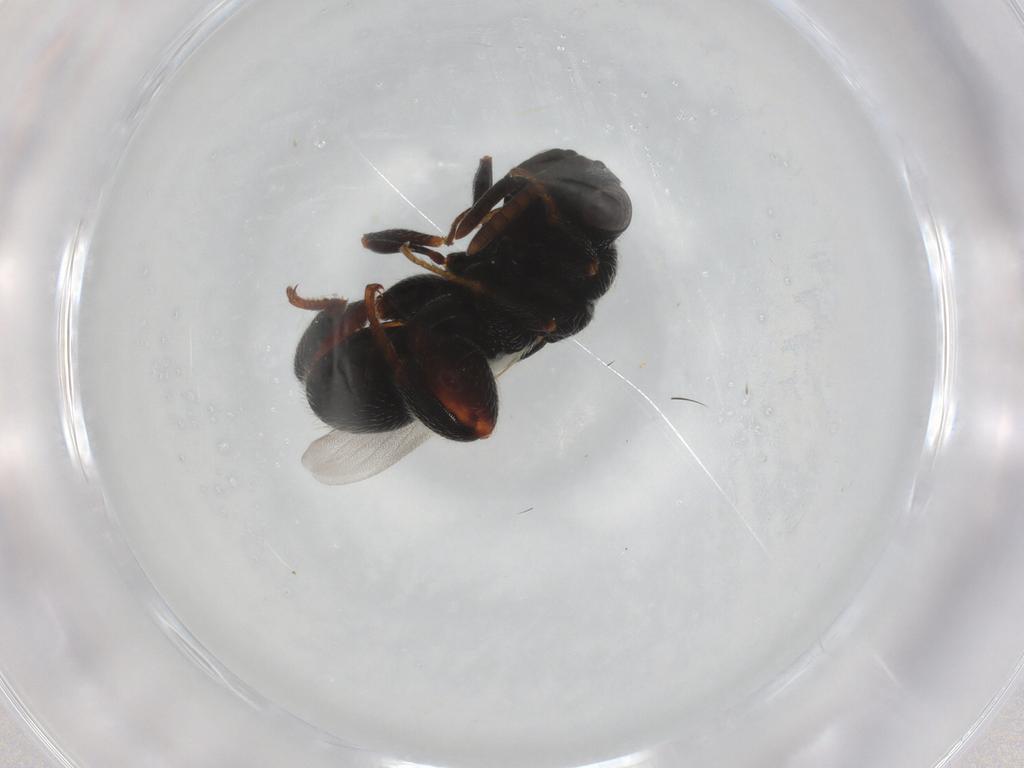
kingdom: Animalia
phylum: Arthropoda
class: Insecta
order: Hymenoptera
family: Chalcididae
